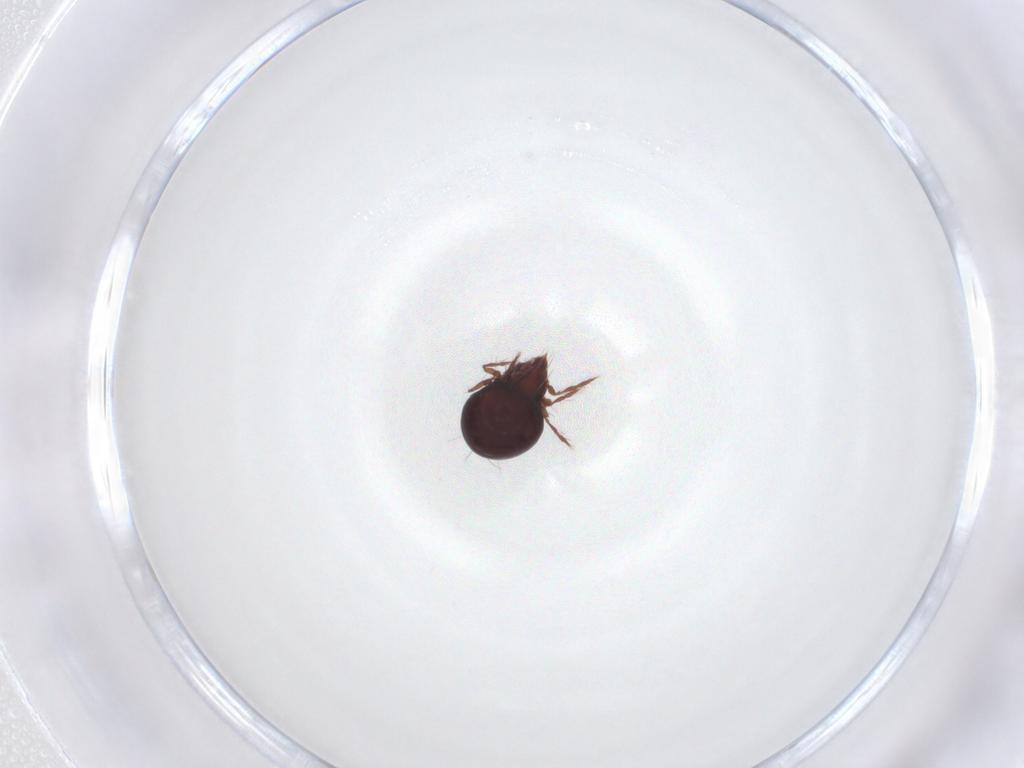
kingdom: Animalia
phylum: Arthropoda
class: Arachnida
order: Sarcoptiformes
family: Ceratoppiidae
